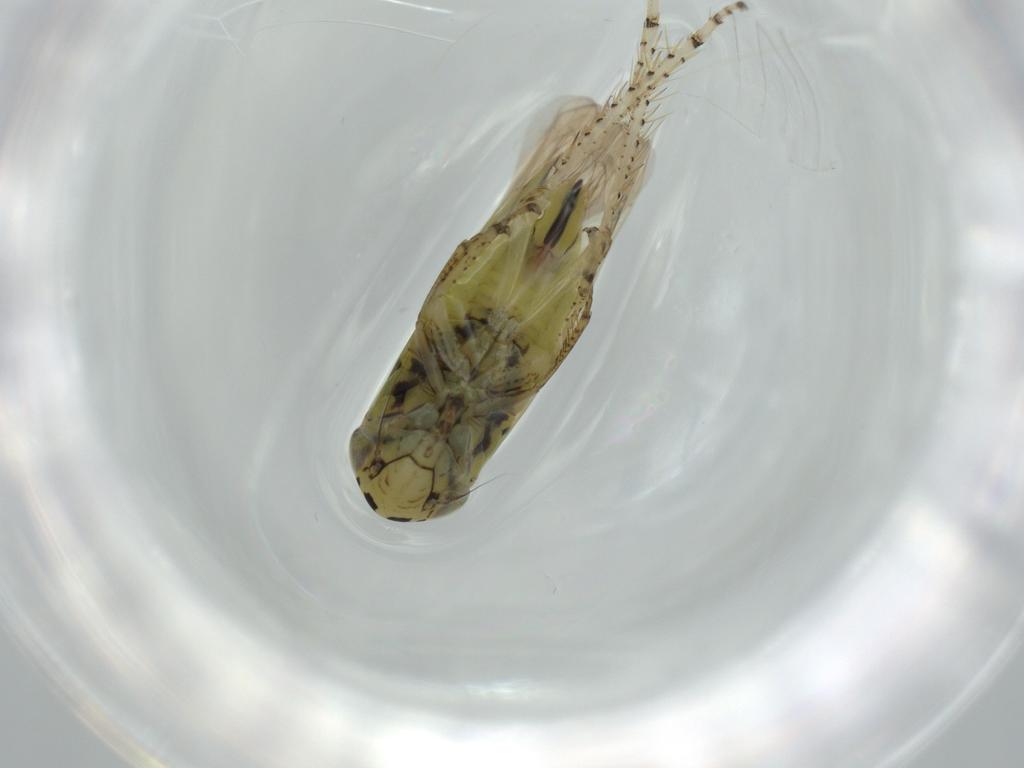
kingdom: Animalia
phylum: Arthropoda
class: Insecta
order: Hemiptera
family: Cicadellidae
